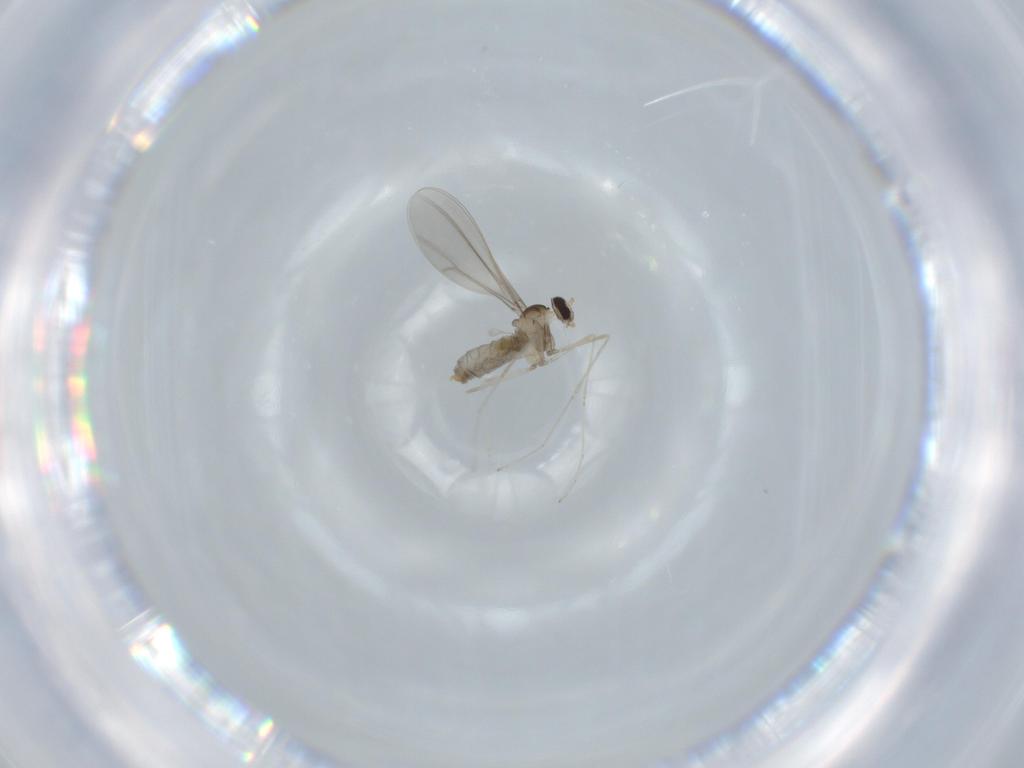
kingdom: Animalia
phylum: Arthropoda
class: Insecta
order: Diptera
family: Cecidomyiidae
